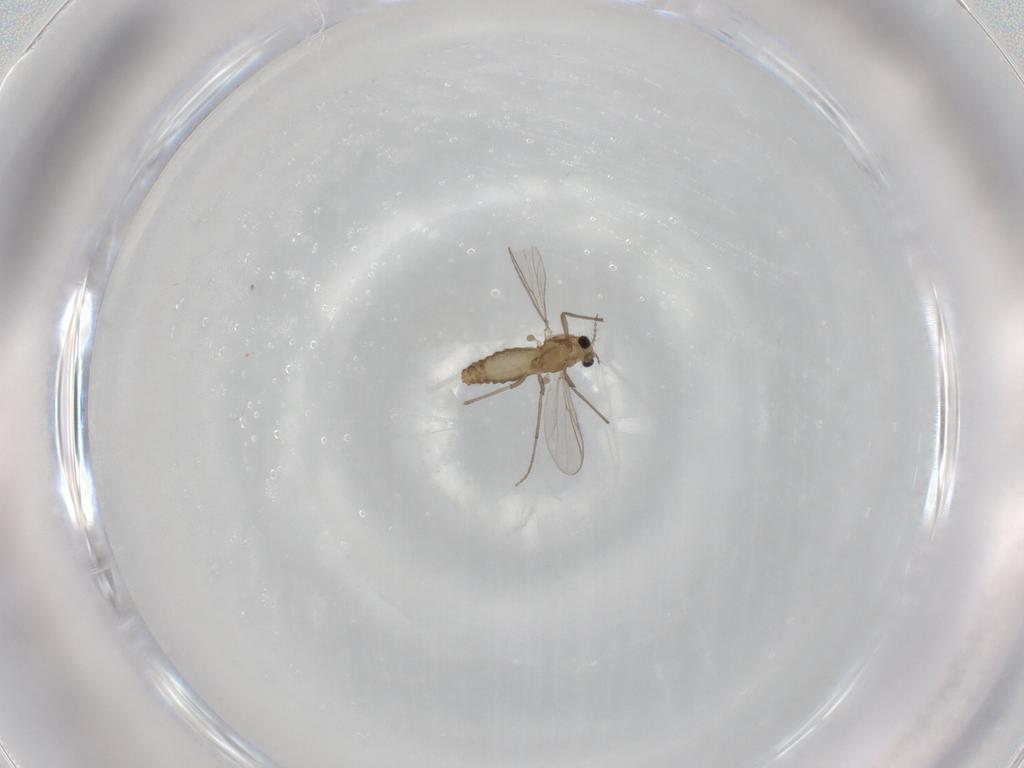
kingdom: Animalia
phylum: Arthropoda
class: Insecta
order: Diptera
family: Chironomidae
